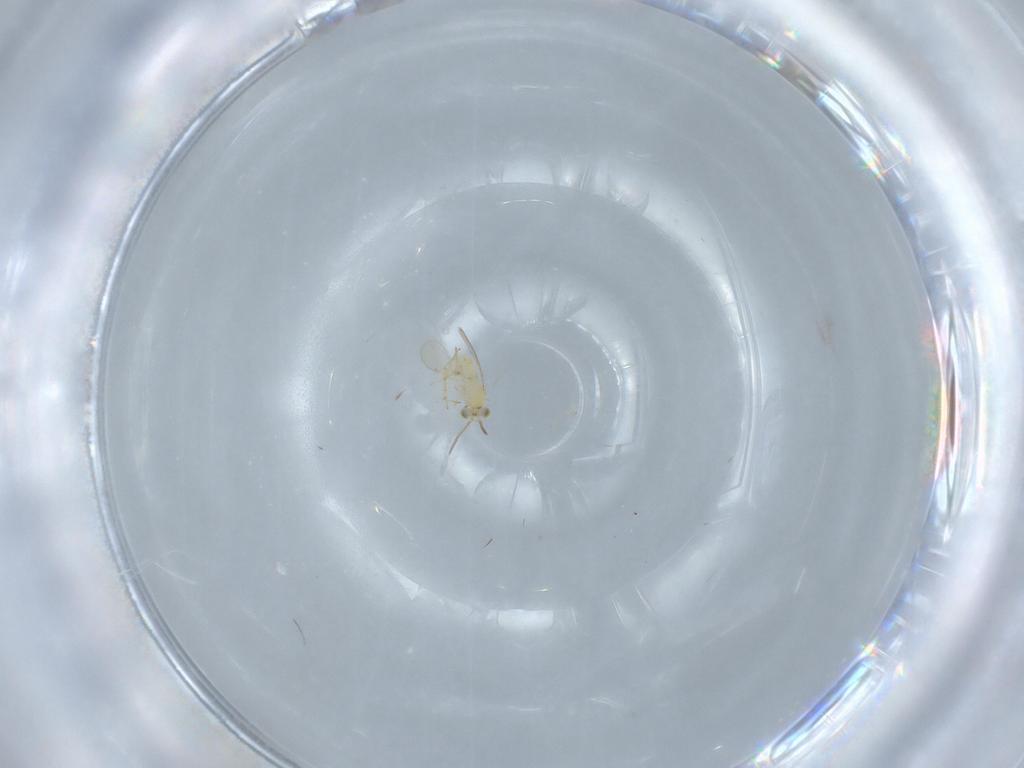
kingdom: Animalia
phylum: Arthropoda
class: Insecta
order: Hymenoptera
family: Aphelinidae
